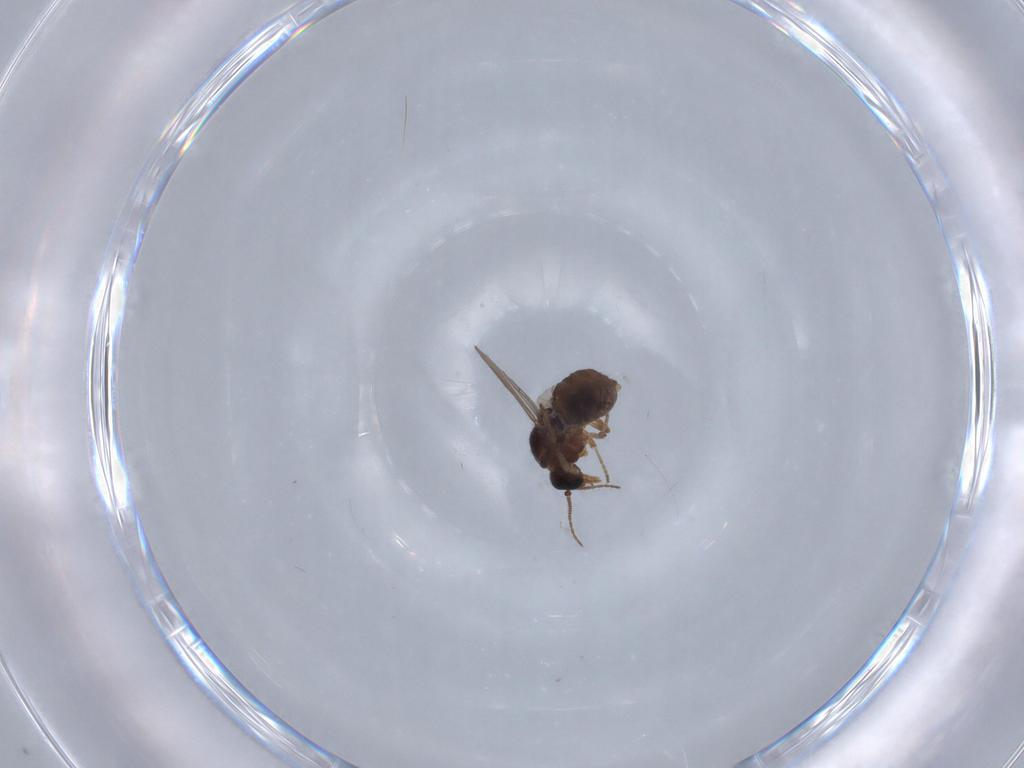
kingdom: Animalia
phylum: Arthropoda
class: Insecta
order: Diptera
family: Ceratopogonidae
